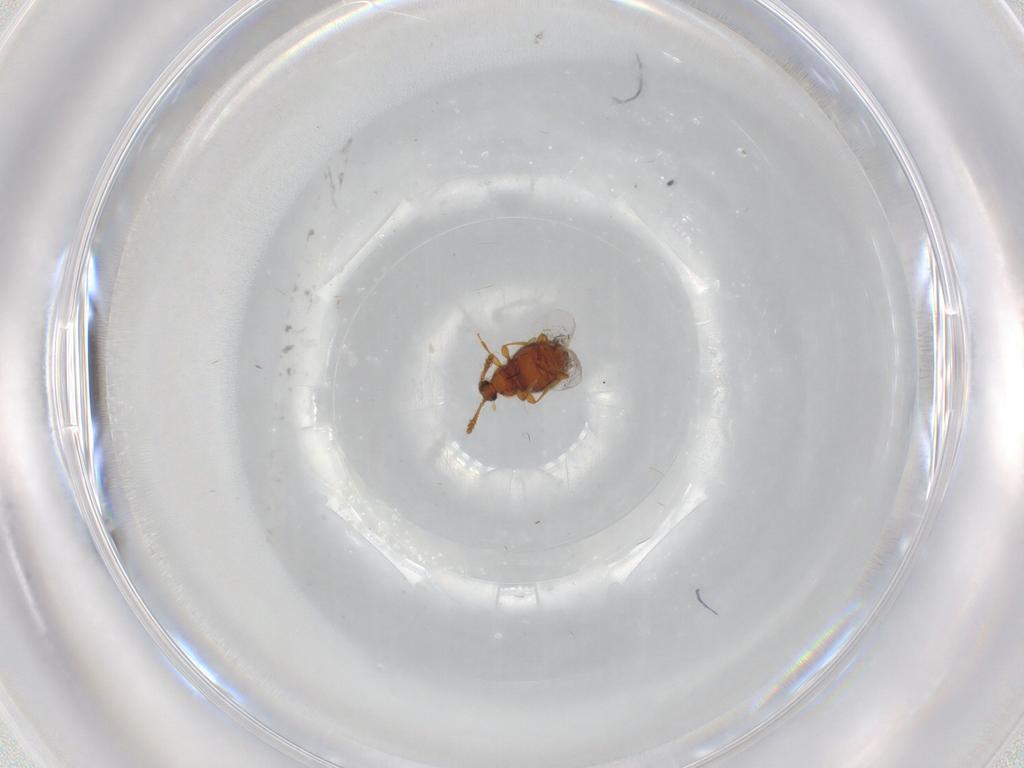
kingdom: Animalia
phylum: Arthropoda
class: Insecta
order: Coleoptera
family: Staphylinidae
